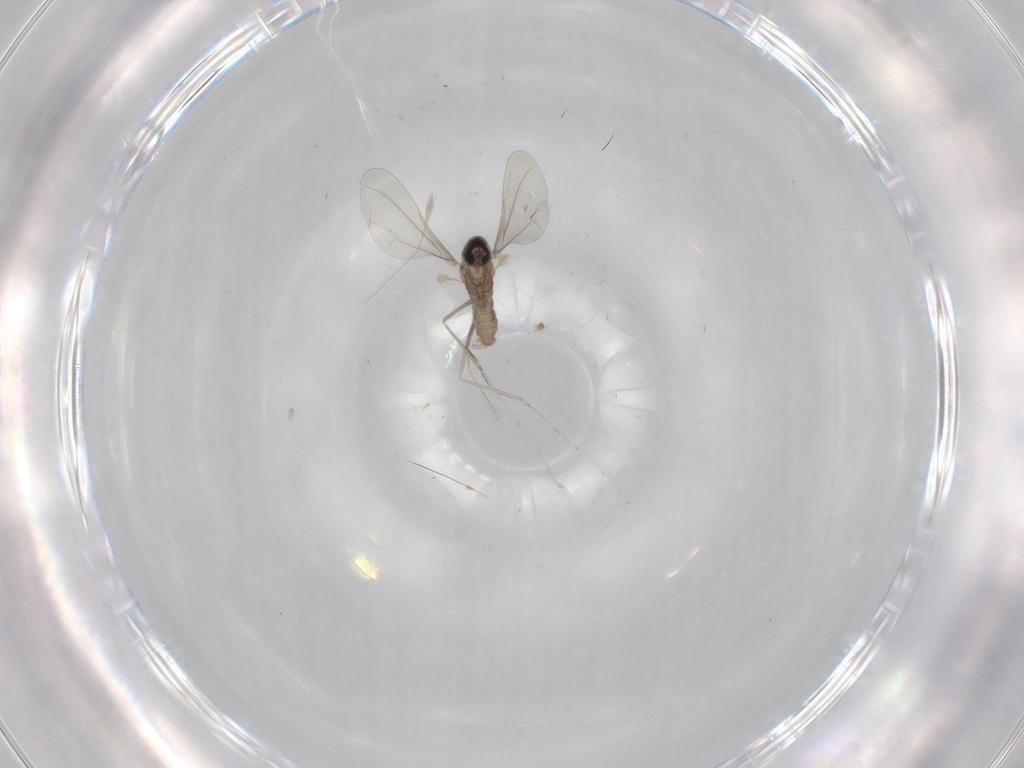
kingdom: Animalia
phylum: Arthropoda
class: Insecta
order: Diptera
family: Cecidomyiidae
